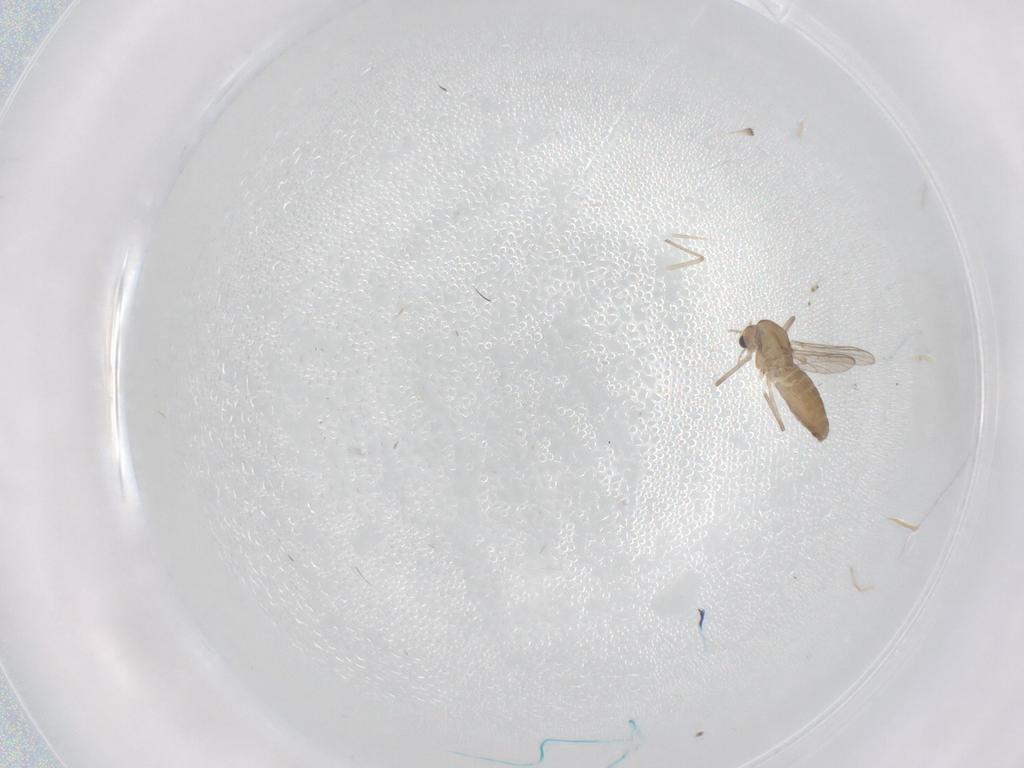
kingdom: Animalia
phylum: Arthropoda
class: Insecta
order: Diptera
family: Chironomidae
